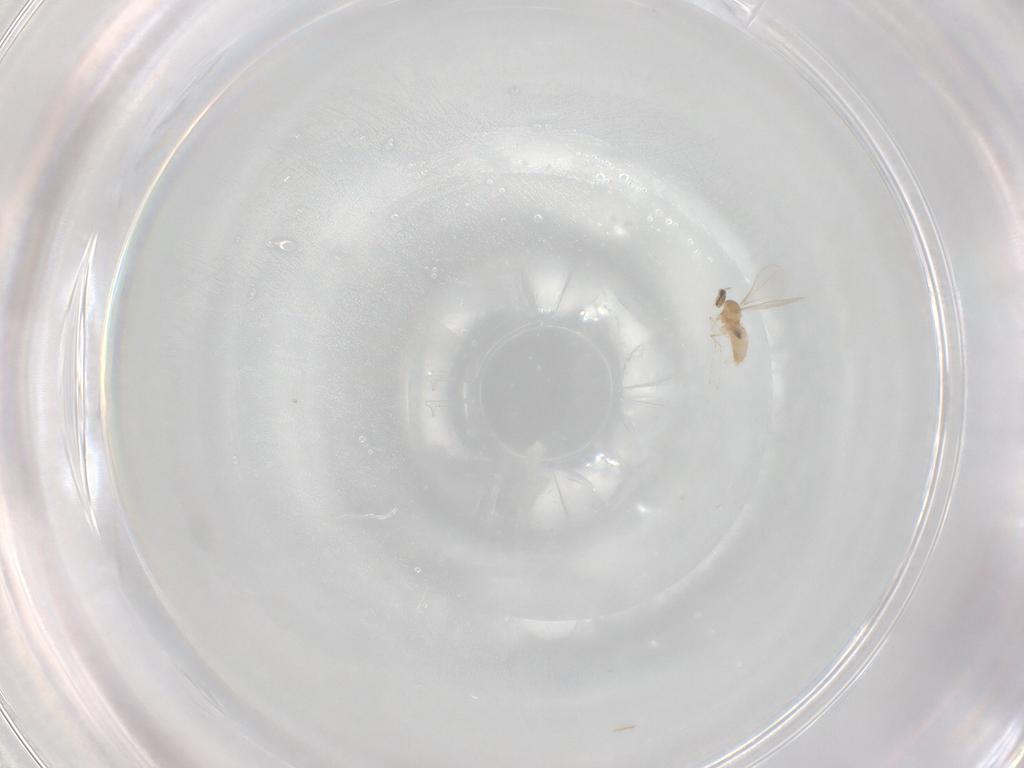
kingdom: Animalia
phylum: Arthropoda
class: Insecta
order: Diptera
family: Cecidomyiidae
